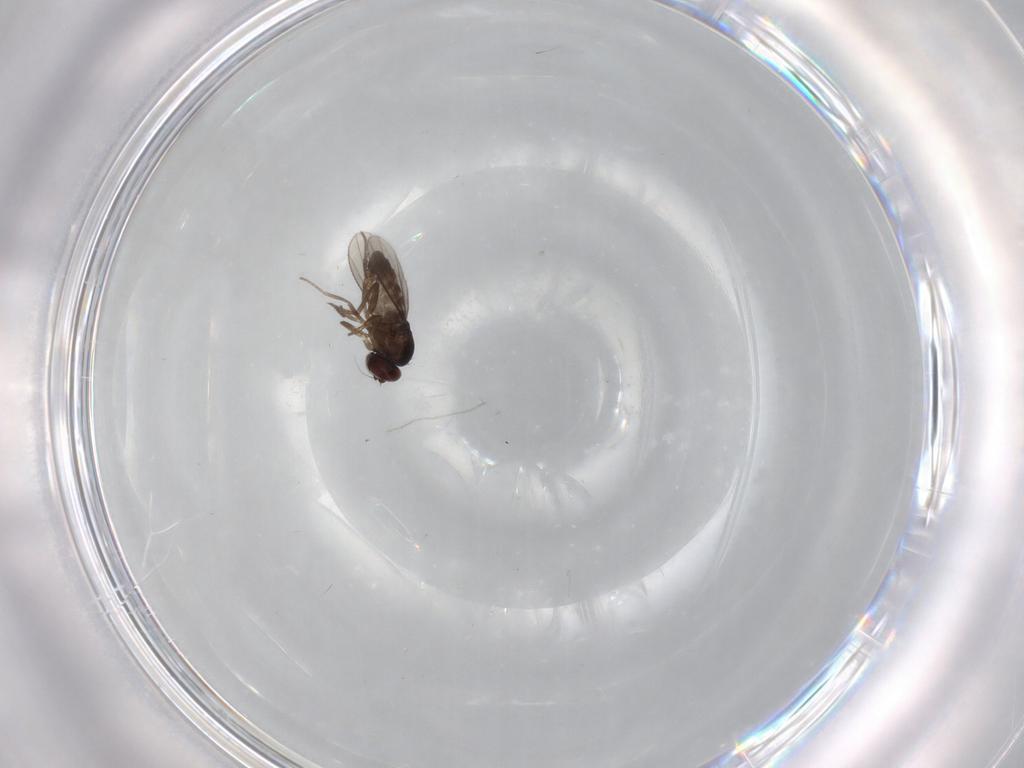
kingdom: Animalia
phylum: Arthropoda
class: Insecta
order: Diptera
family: Dolichopodidae
